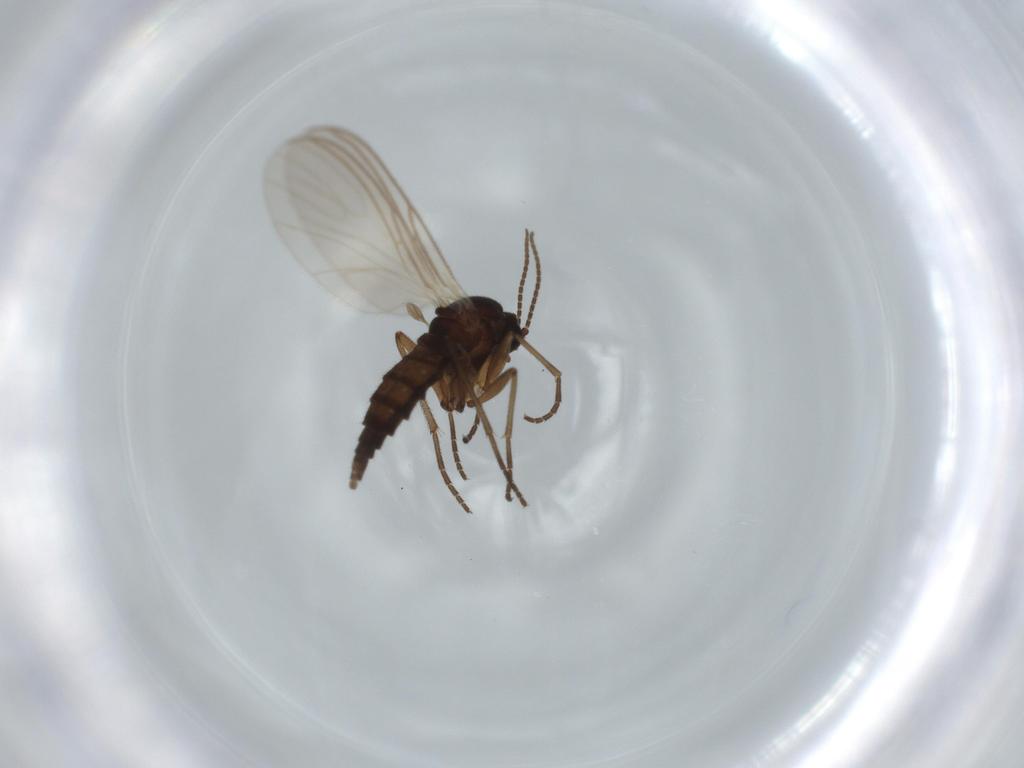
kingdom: Animalia
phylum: Arthropoda
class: Insecta
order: Diptera
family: Sciaridae
